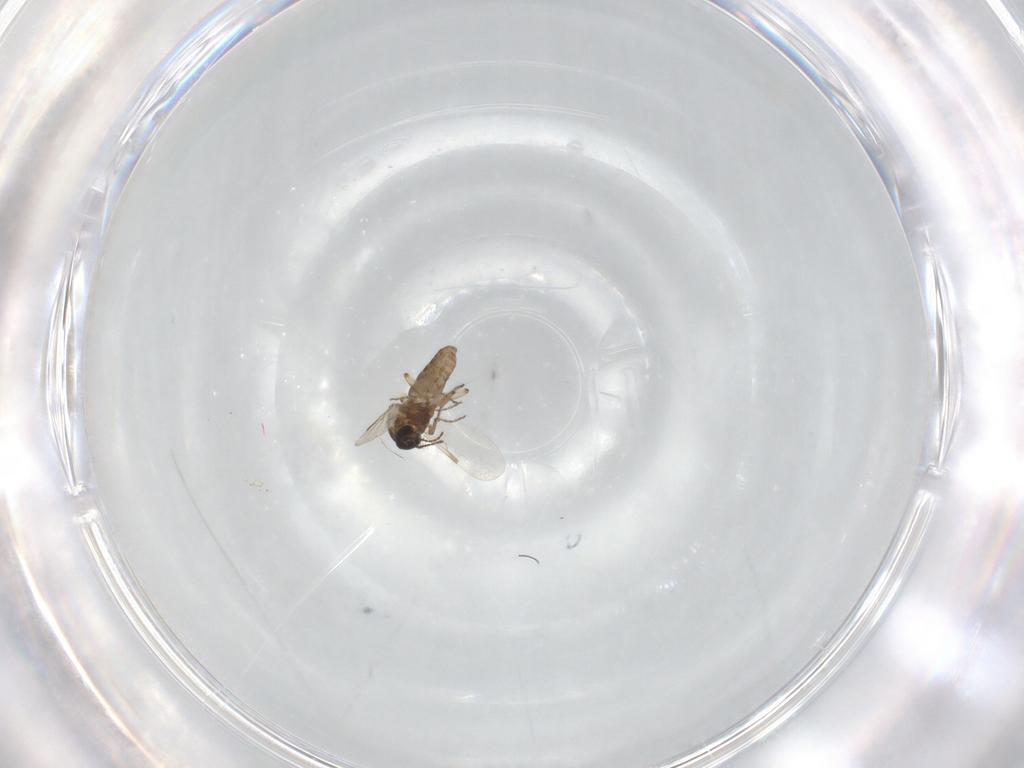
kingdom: Animalia
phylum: Arthropoda
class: Insecta
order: Diptera
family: Ceratopogonidae
